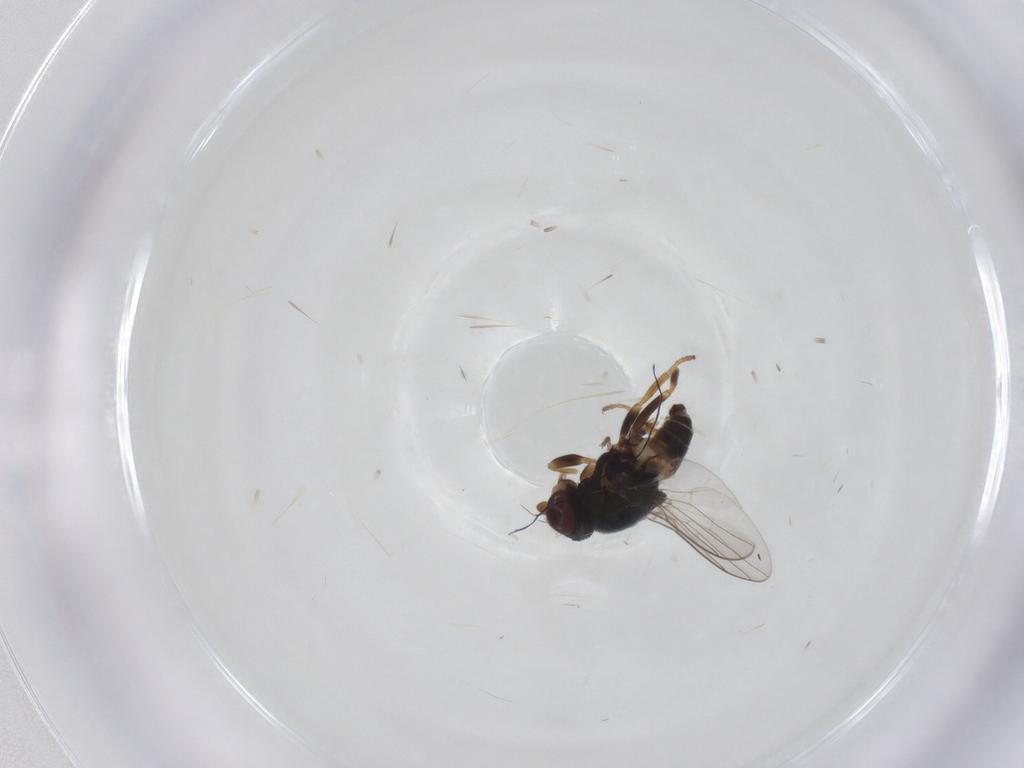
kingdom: Animalia
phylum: Arthropoda
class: Insecta
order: Diptera
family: Chloropidae
